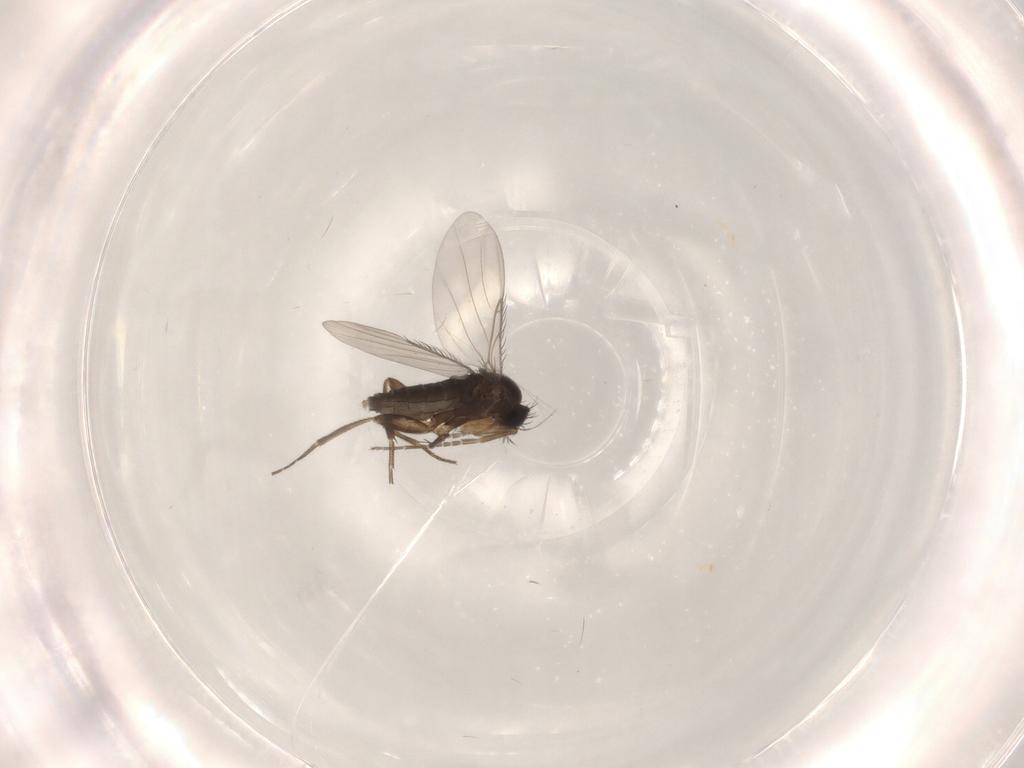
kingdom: Animalia
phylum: Arthropoda
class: Insecta
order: Diptera
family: Phoridae
